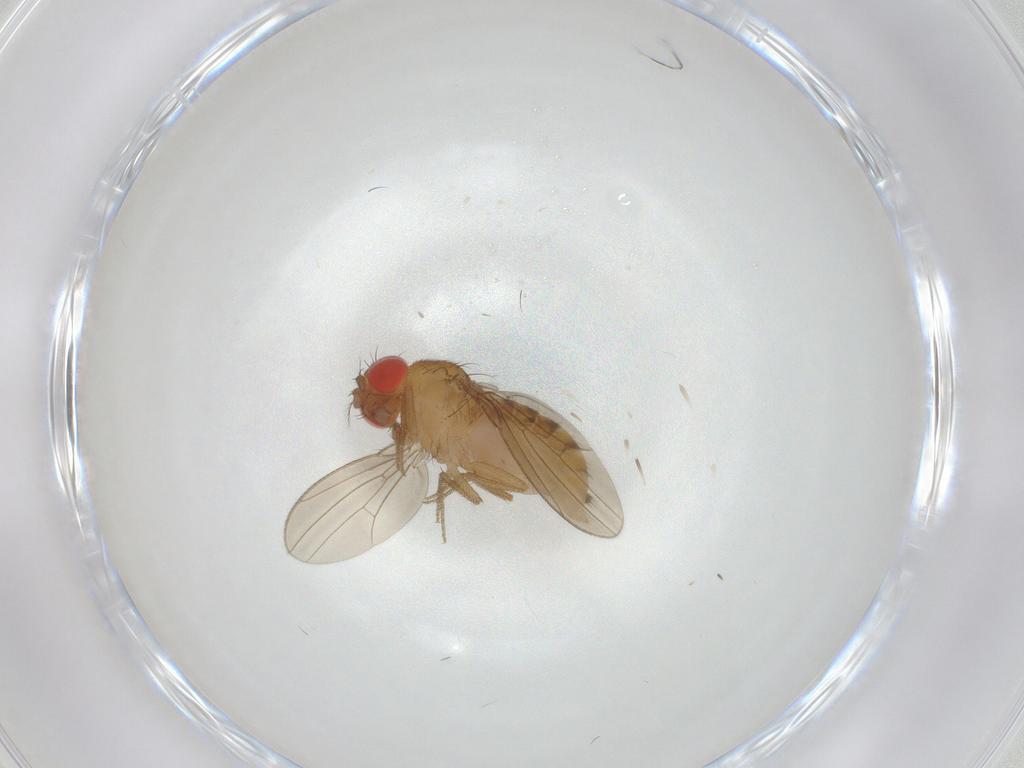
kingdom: Animalia
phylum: Arthropoda
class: Insecta
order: Diptera
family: Drosophilidae
